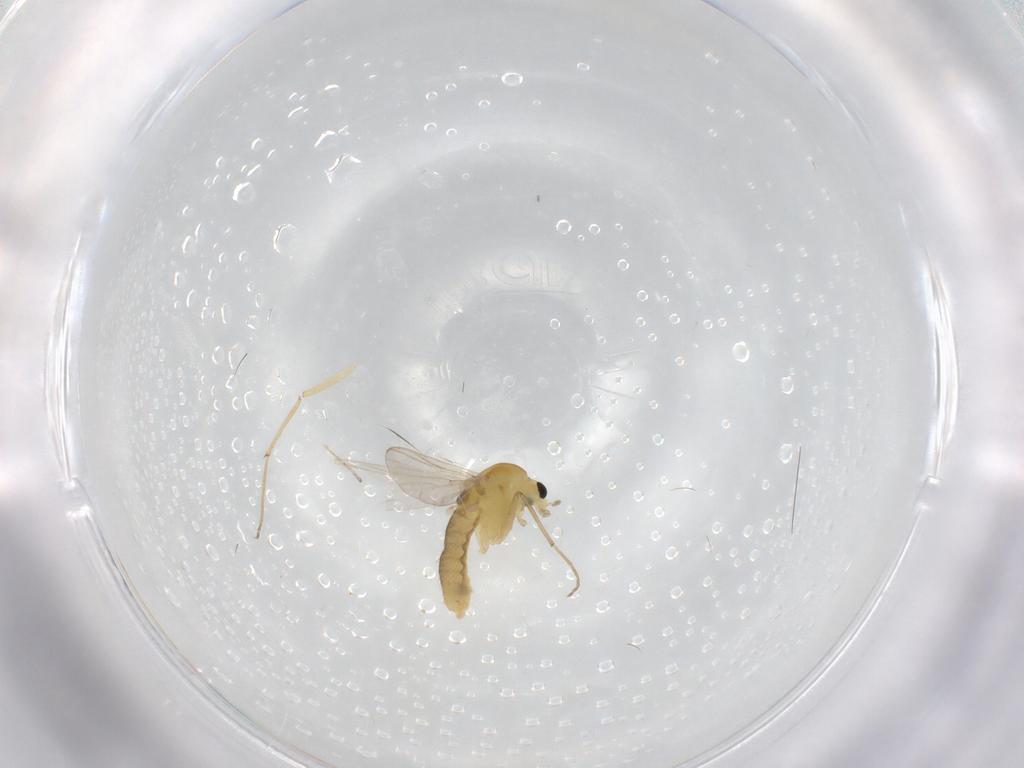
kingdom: Animalia
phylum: Arthropoda
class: Insecta
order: Diptera
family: Chironomidae
